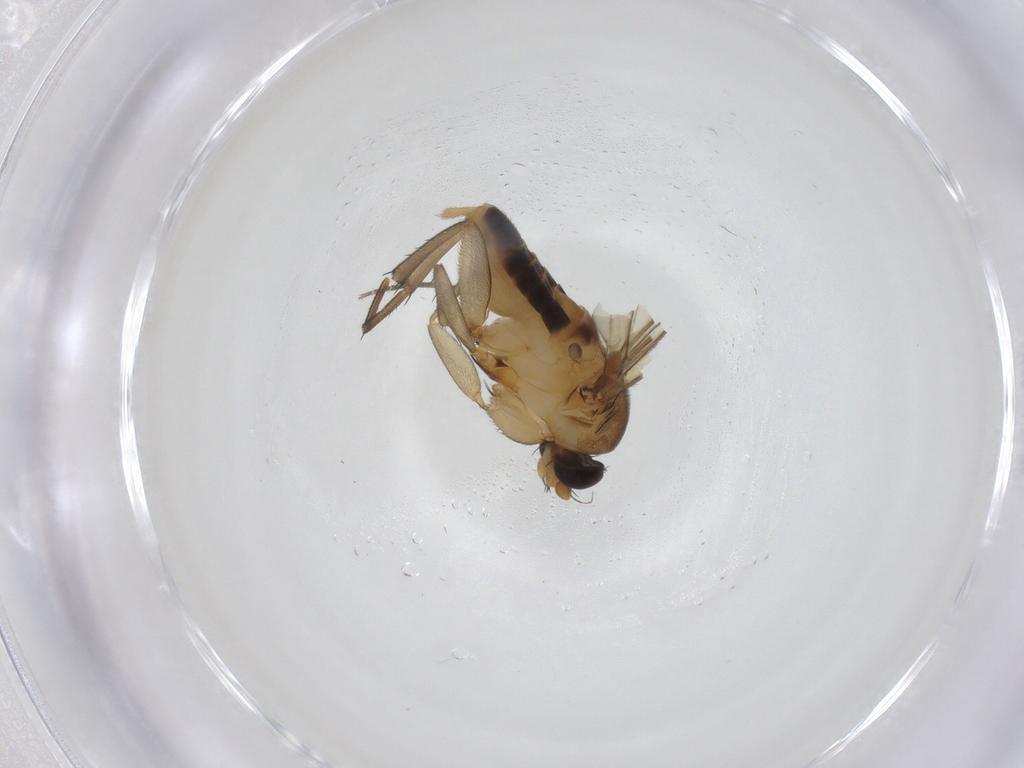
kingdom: Animalia
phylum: Arthropoda
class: Insecta
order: Diptera
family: Phoridae
